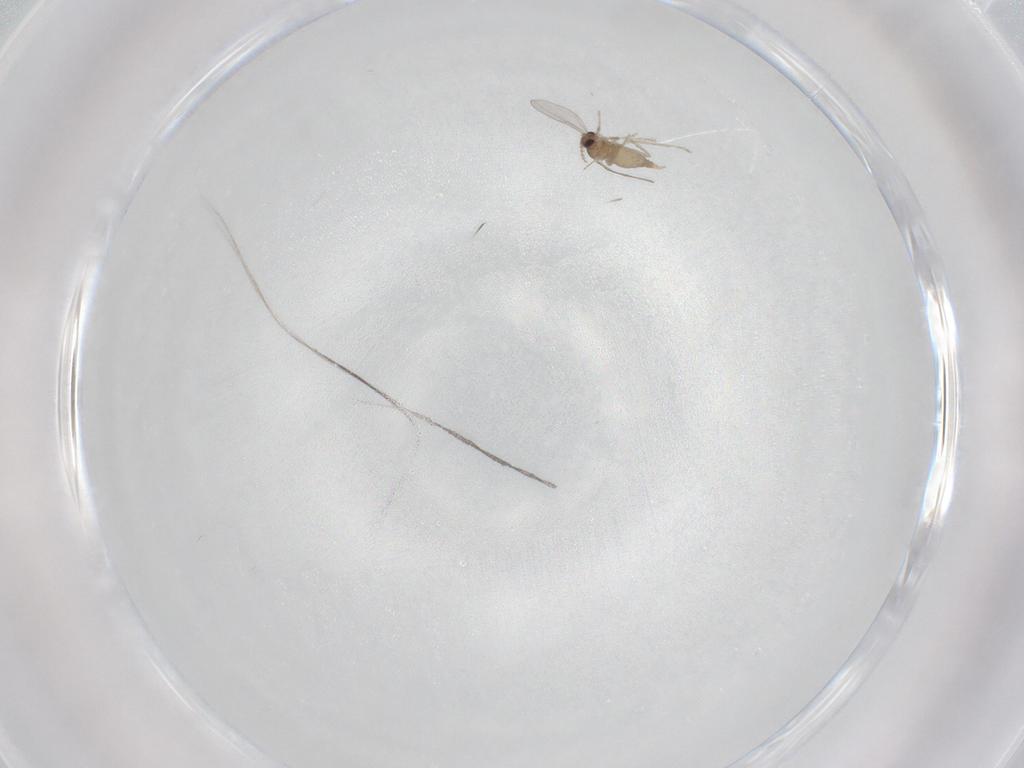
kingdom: Animalia
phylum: Arthropoda
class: Insecta
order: Diptera
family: Cecidomyiidae
